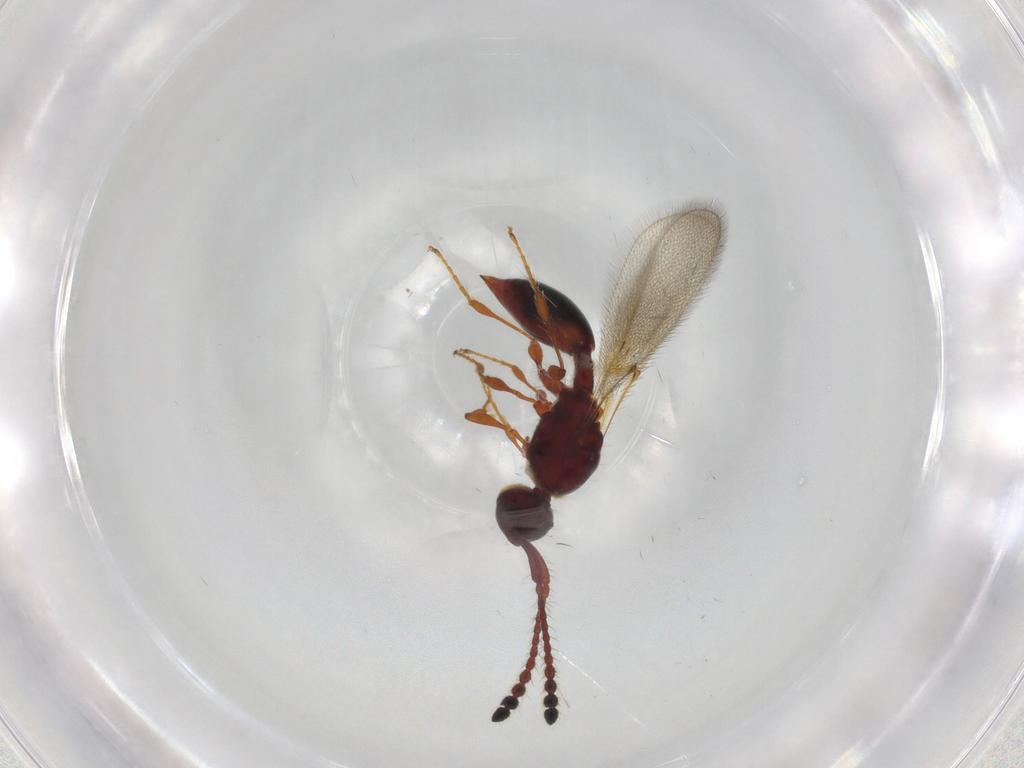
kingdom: Animalia
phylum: Arthropoda
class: Insecta
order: Hymenoptera
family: Diapriidae
